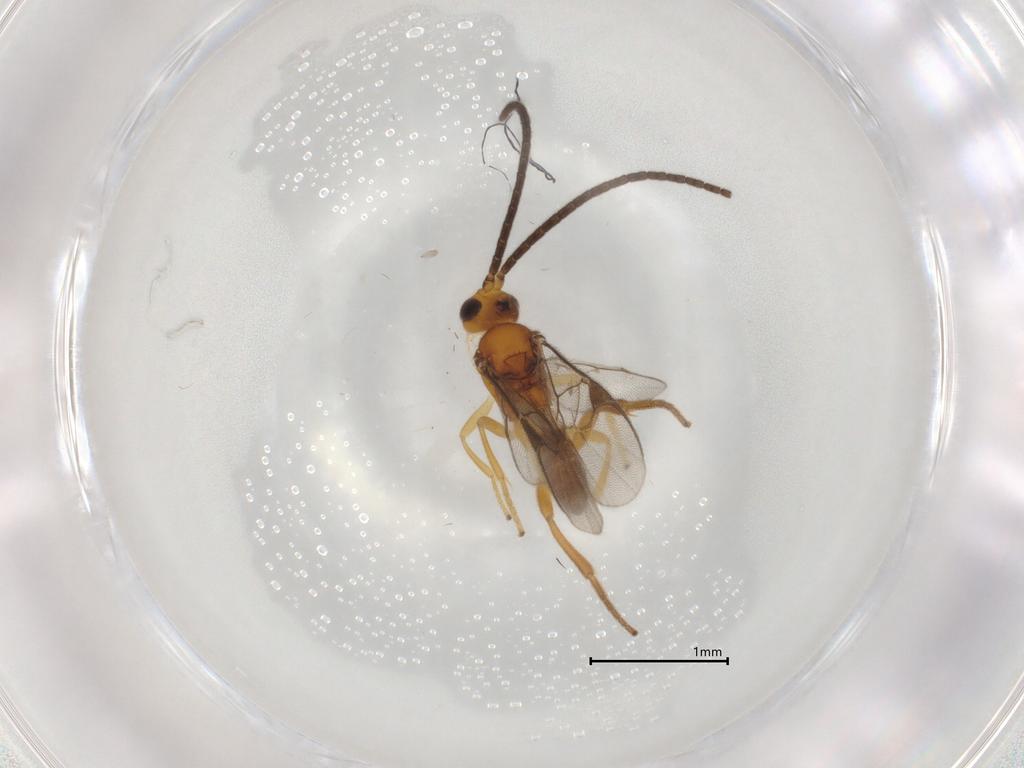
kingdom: Animalia
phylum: Arthropoda
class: Insecta
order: Hymenoptera
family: Braconidae
